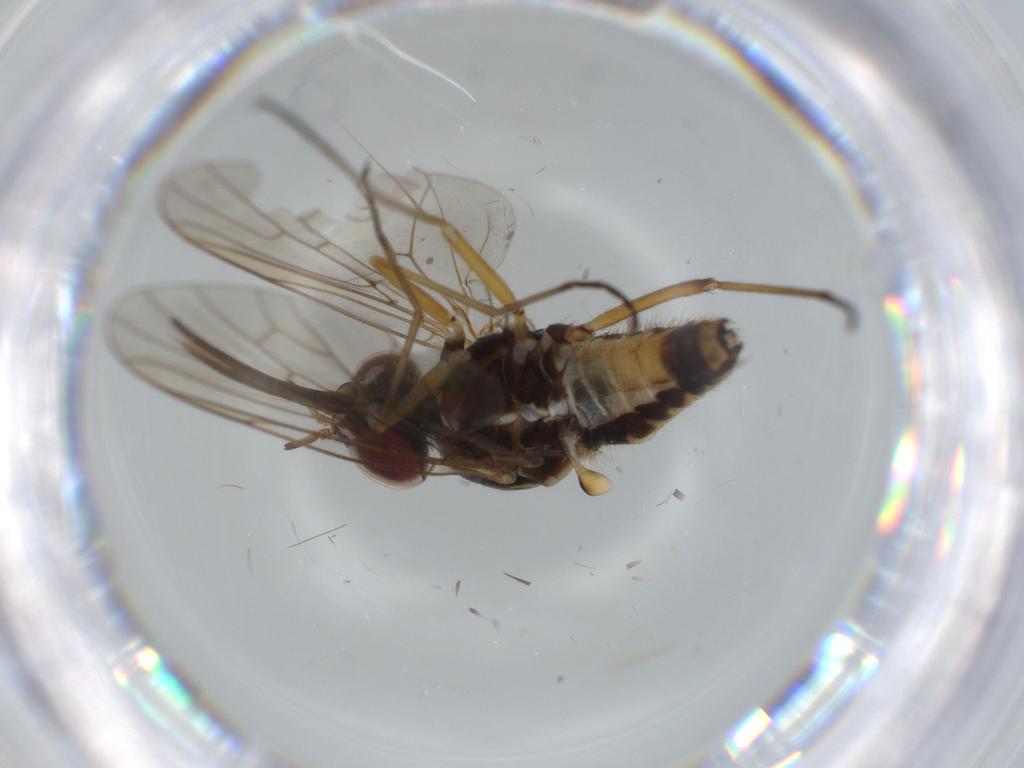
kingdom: Animalia
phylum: Arthropoda
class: Insecta
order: Diptera
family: Bombyliidae
